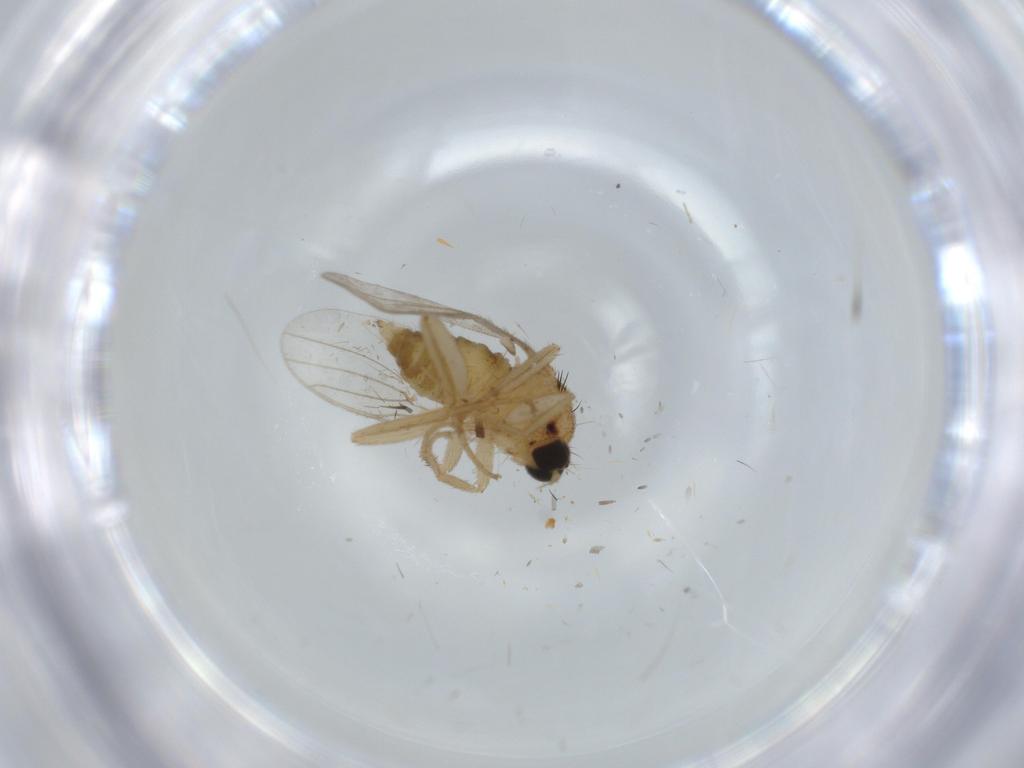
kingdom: Animalia
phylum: Arthropoda
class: Insecta
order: Diptera
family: Hybotidae
